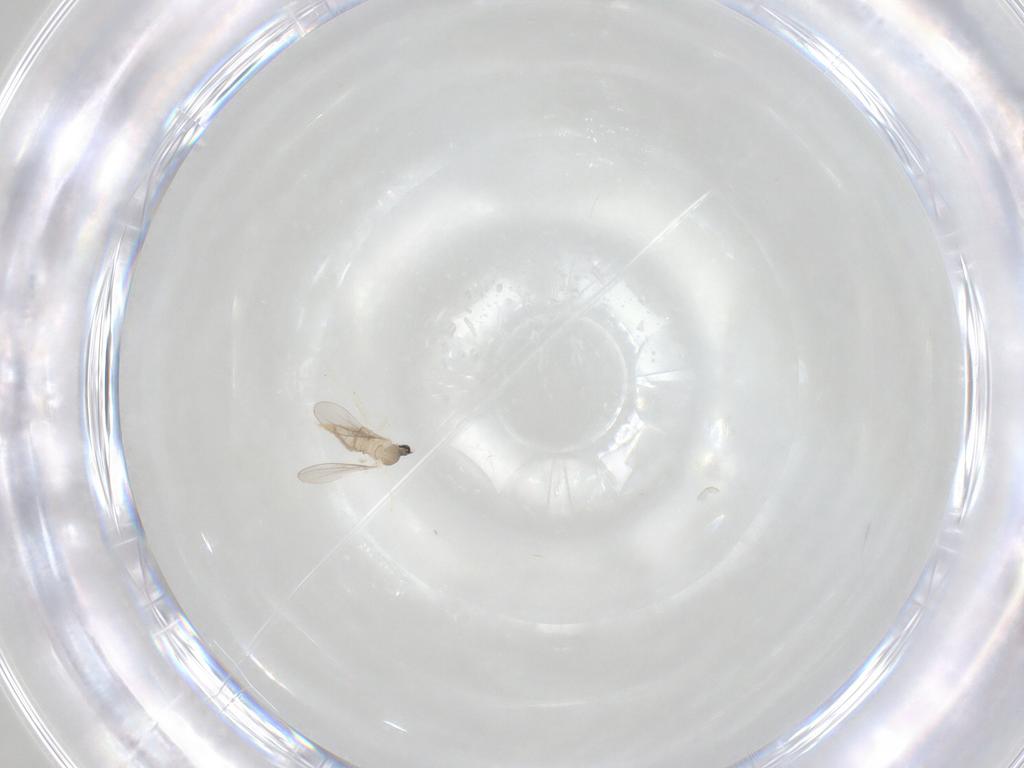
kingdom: Animalia
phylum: Arthropoda
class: Insecta
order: Diptera
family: Cecidomyiidae
